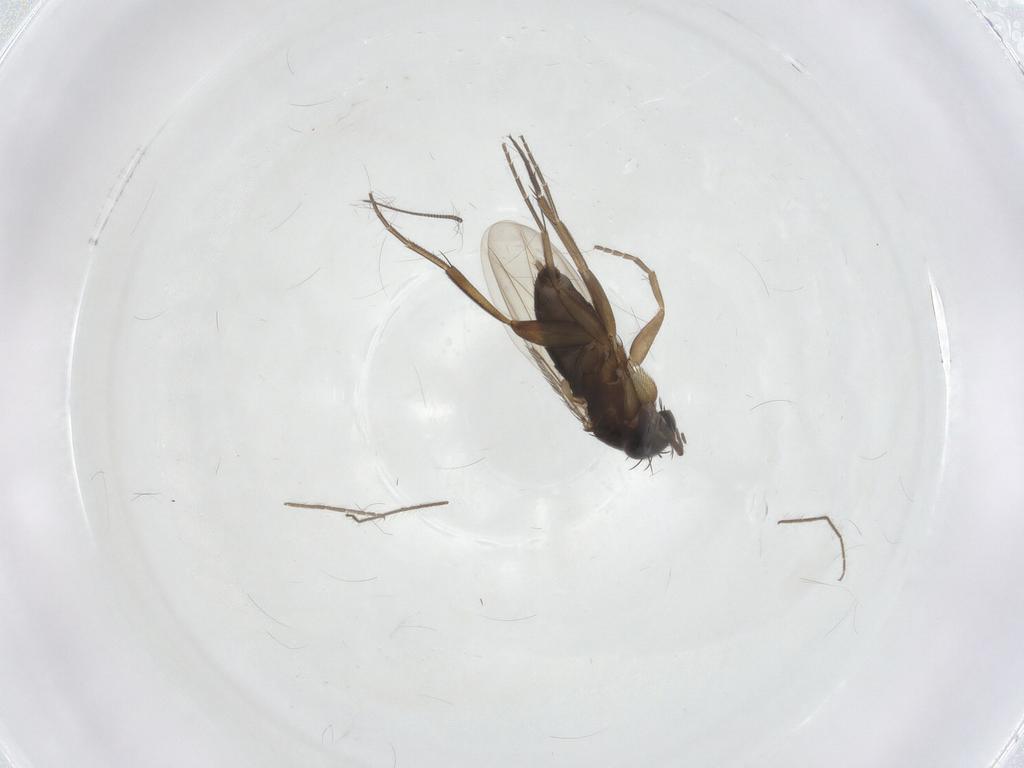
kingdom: Animalia
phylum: Arthropoda
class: Insecta
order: Diptera
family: Phoridae
